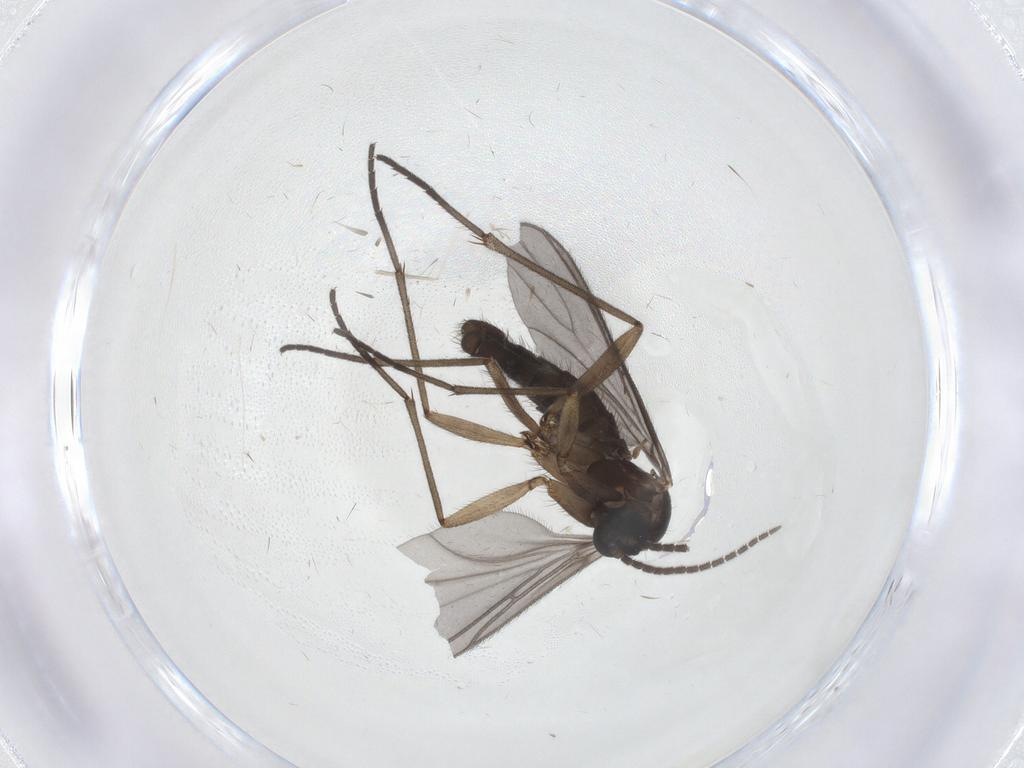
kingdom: Animalia
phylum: Arthropoda
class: Insecta
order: Diptera
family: Sciaridae
